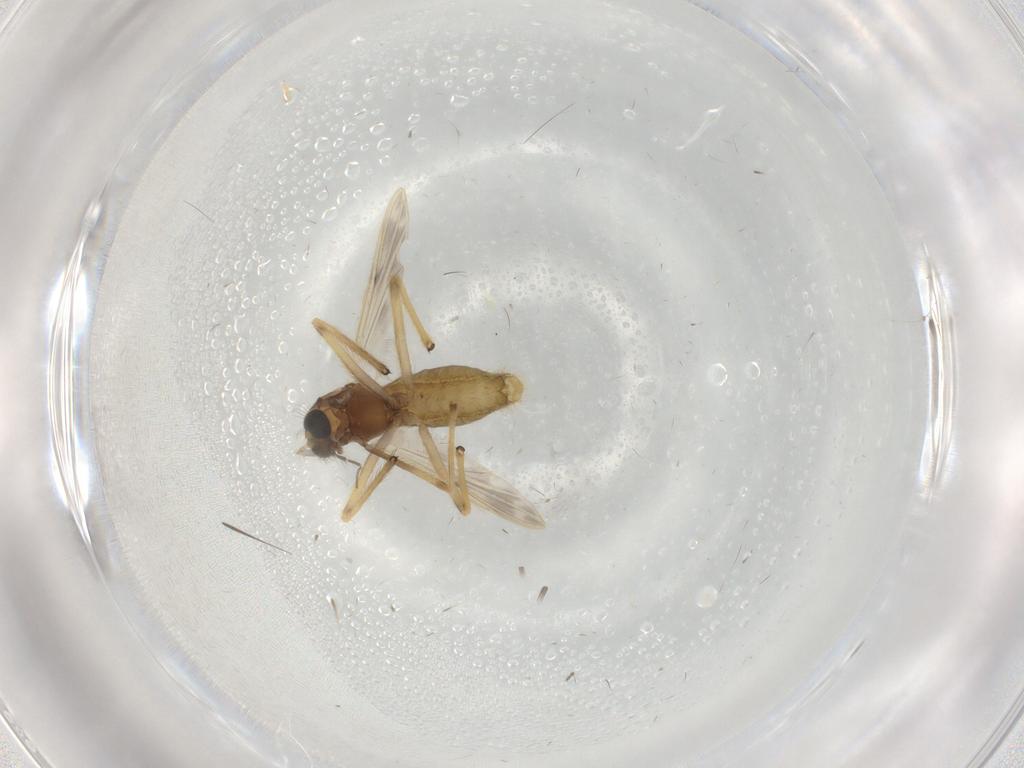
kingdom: Animalia
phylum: Arthropoda
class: Insecta
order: Diptera
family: Chironomidae
